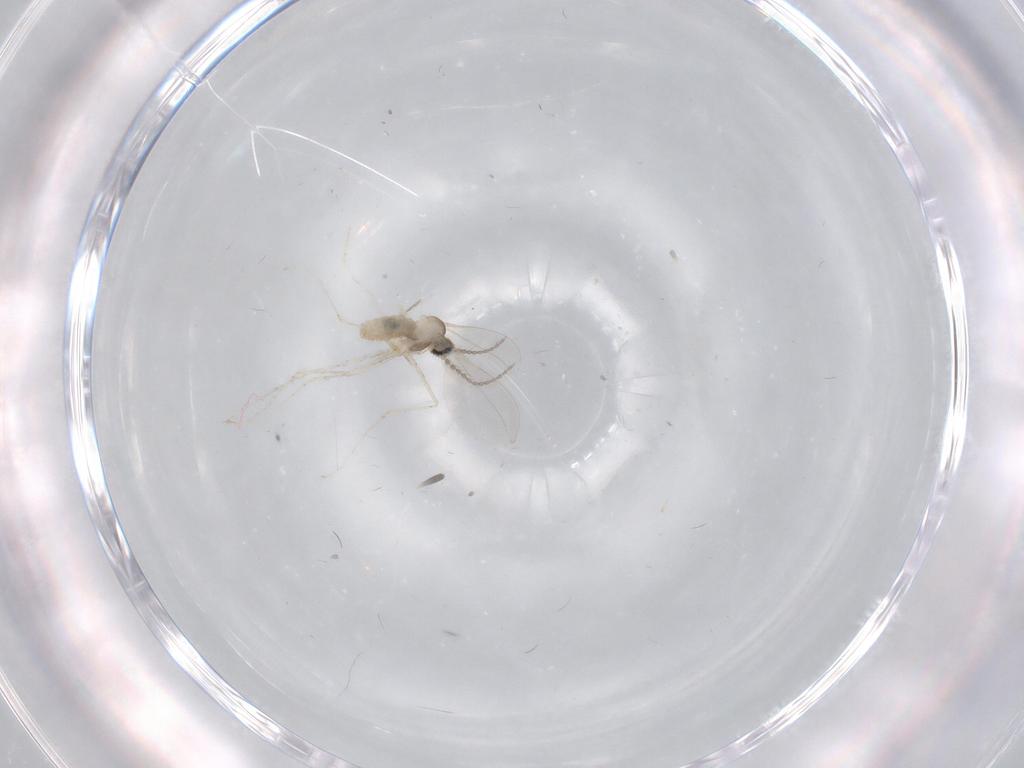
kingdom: Animalia
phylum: Arthropoda
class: Insecta
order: Diptera
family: Cecidomyiidae
